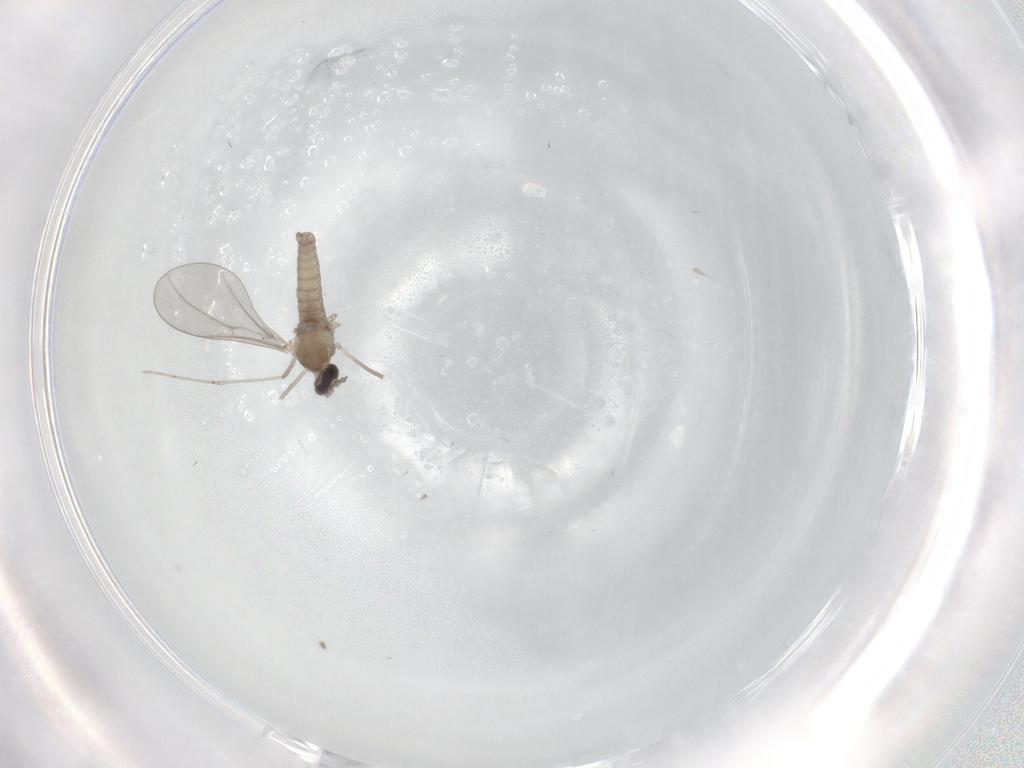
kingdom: Animalia
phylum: Arthropoda
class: Insecta
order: Diptera
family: Cecidomyiidae
